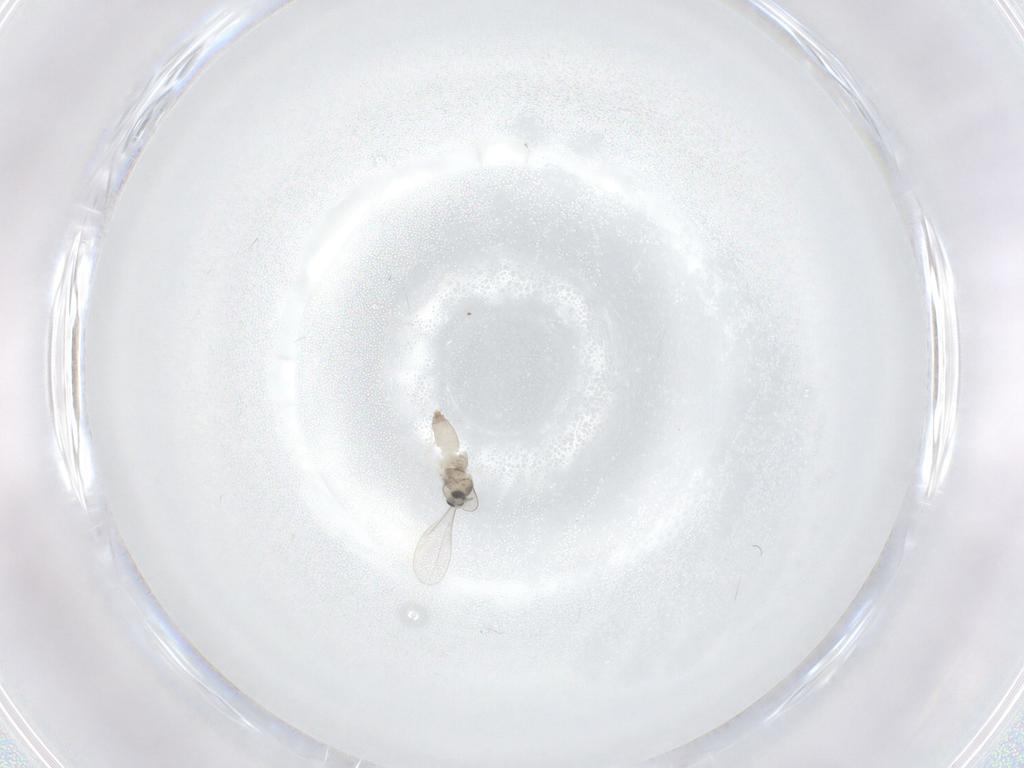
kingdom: Animalia
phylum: Arthropoda
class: Insecta
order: Diptera
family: Cecidomyiidae
